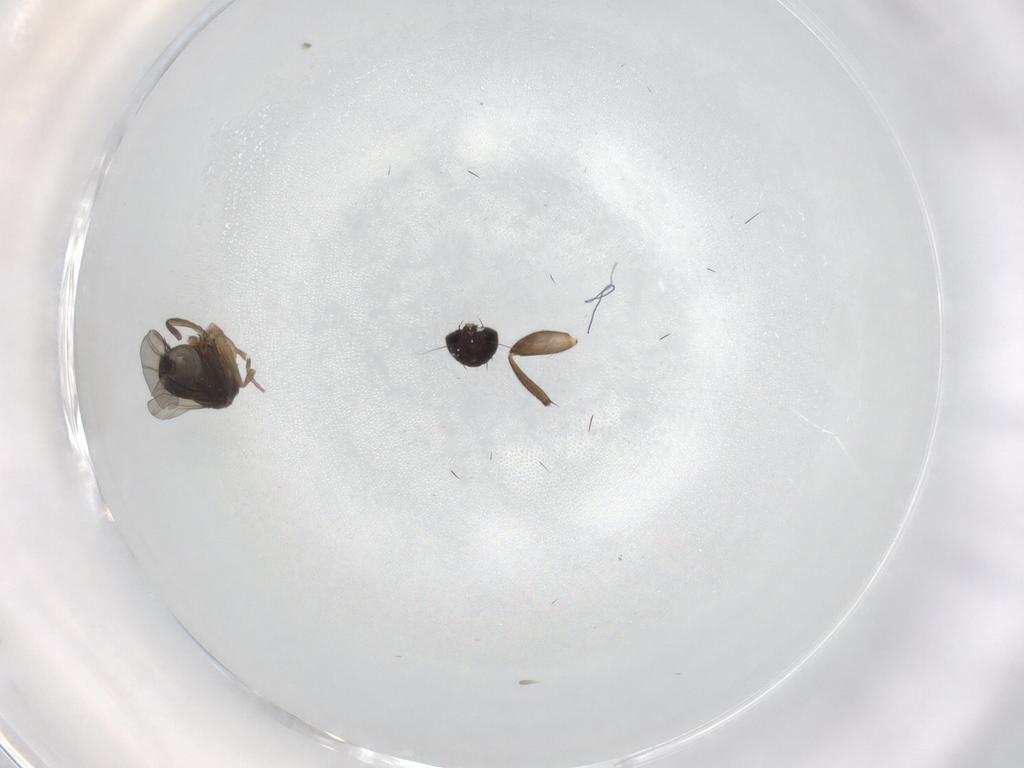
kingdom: Animalia
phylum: Arthropoda
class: Insecta
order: Diptera
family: Phoridae
